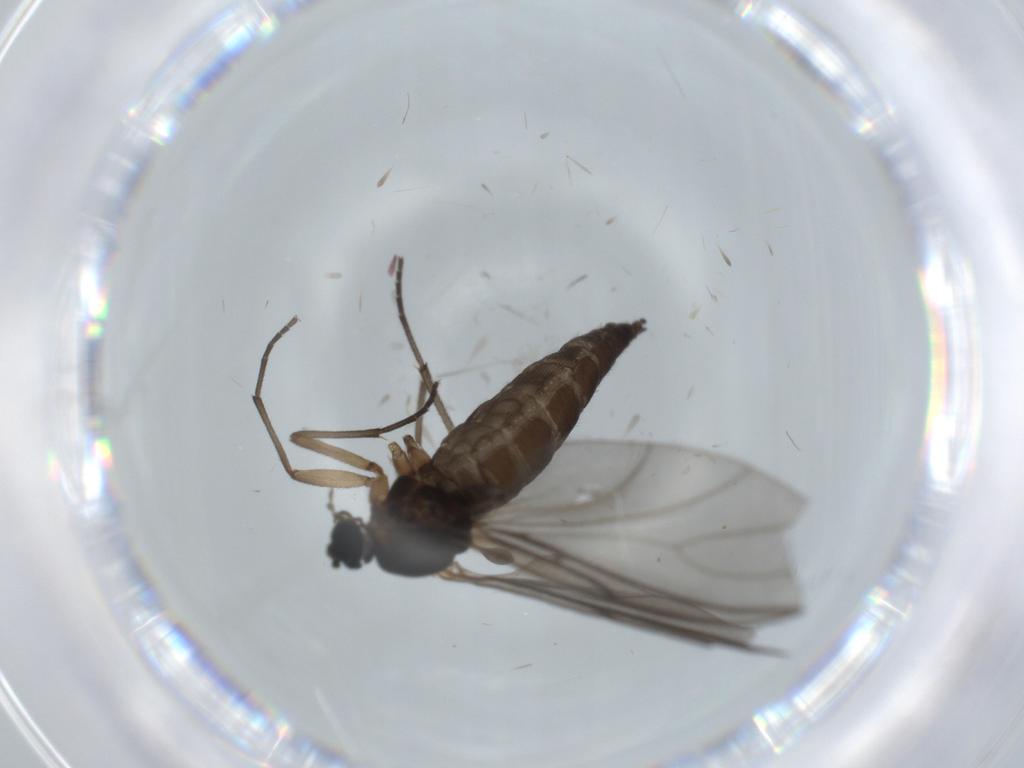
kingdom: Animalia
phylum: Arthropoda
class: Insecta
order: Diptera
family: Sciaridae
